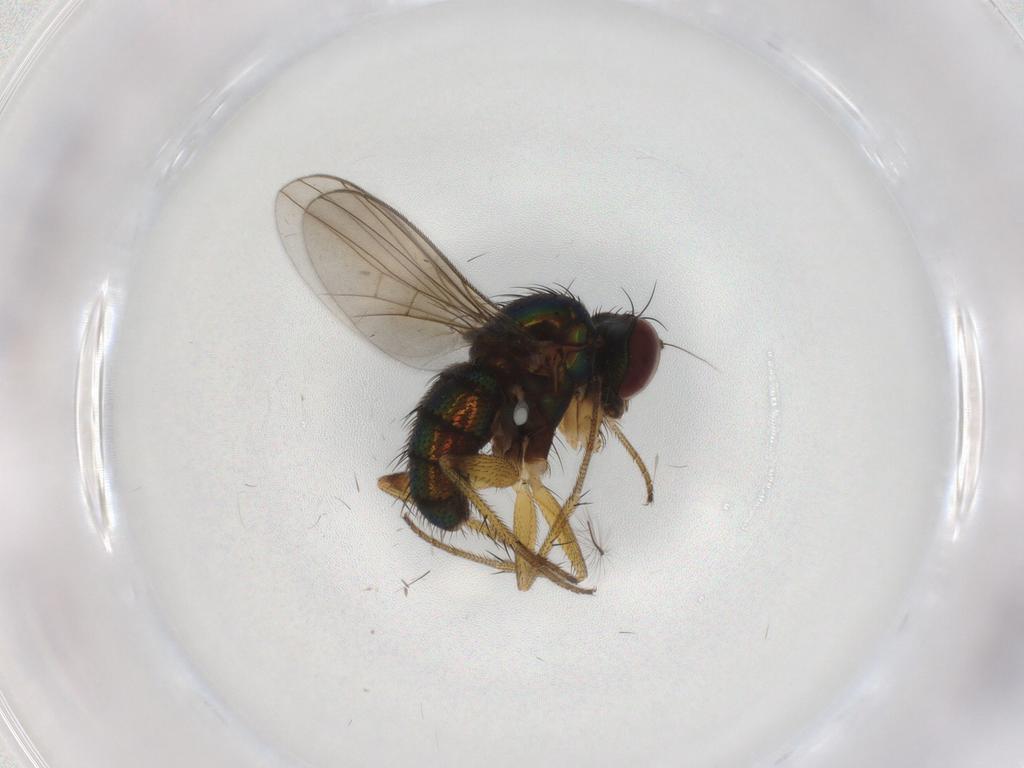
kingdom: Animalia
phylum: Arthropoda
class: Insecta
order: Diptera
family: Dolichopodidae
